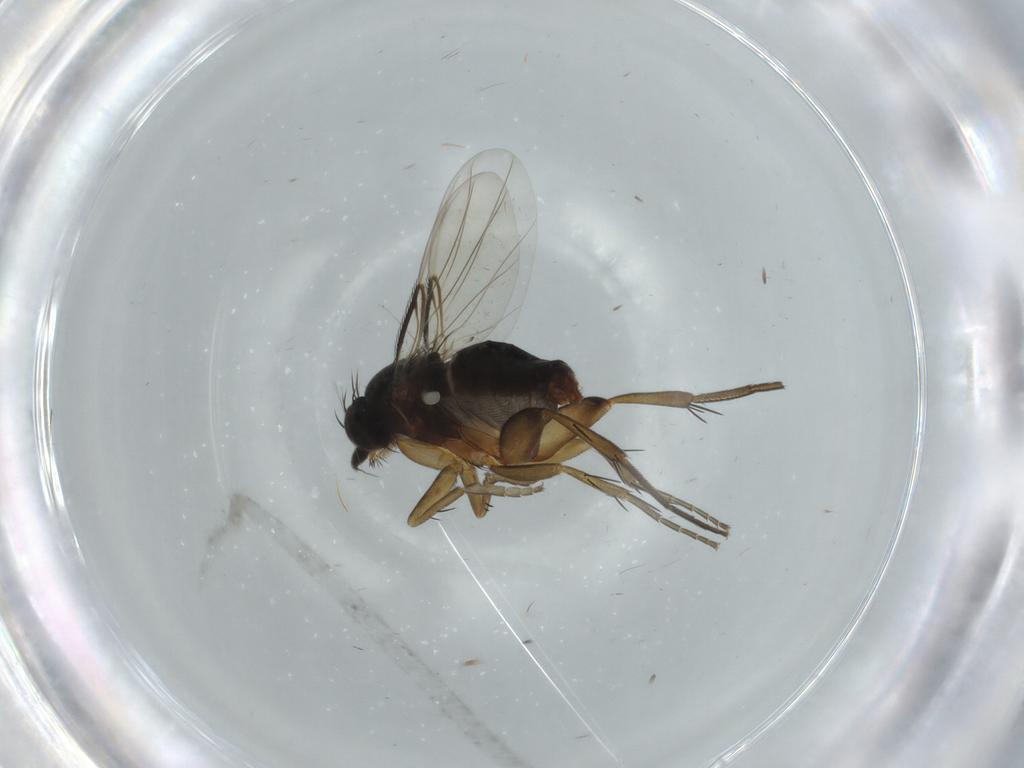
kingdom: Animalia
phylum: Arthropoda
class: Insecta
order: Diptera
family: Phoridae
